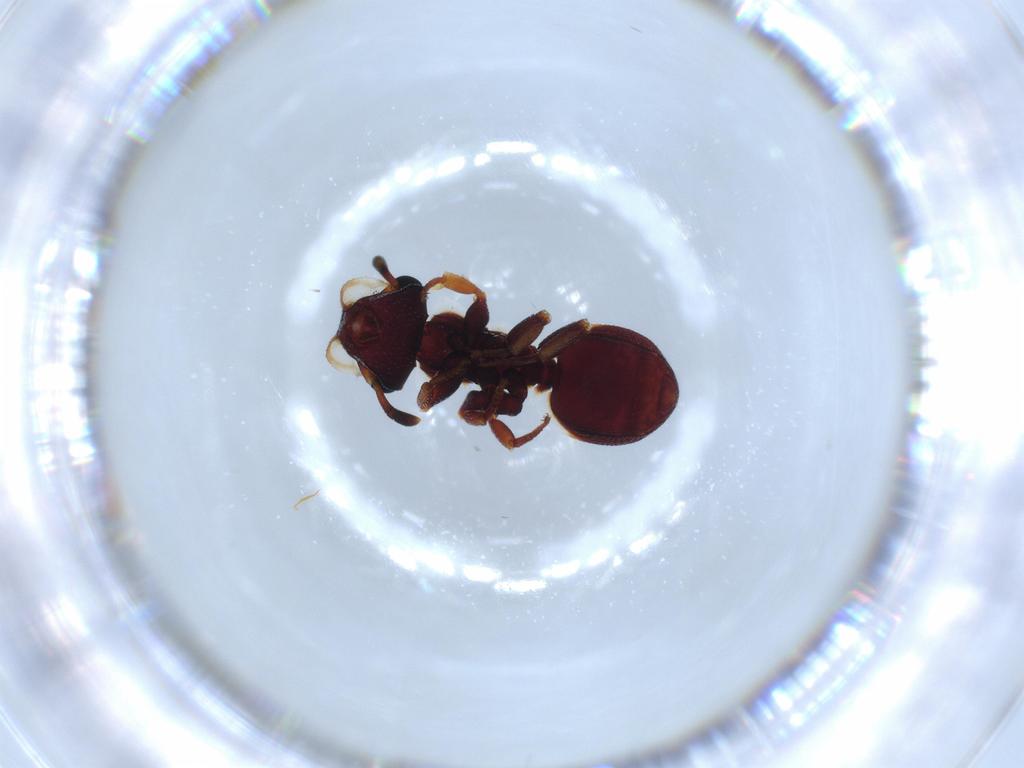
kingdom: Animalia
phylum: Arthropoda
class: Insecta
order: Hymenoptera
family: Formicidae
